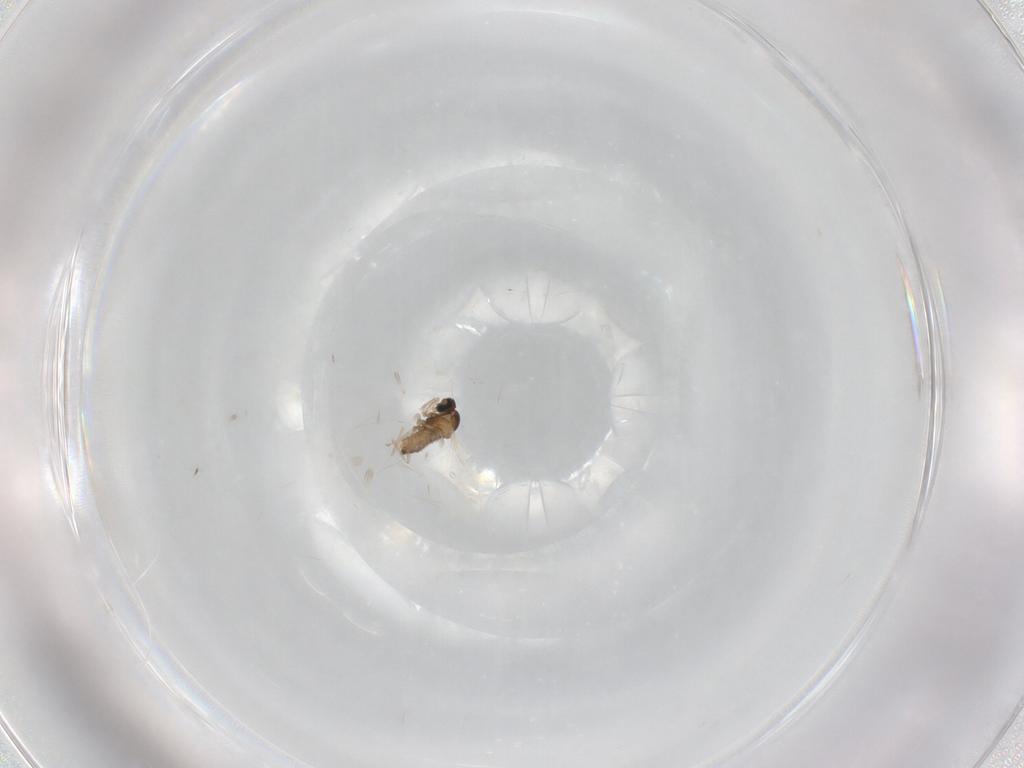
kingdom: Animalia
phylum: Arthropoda
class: Insecta
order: Diptera
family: Cecidomyiidae
